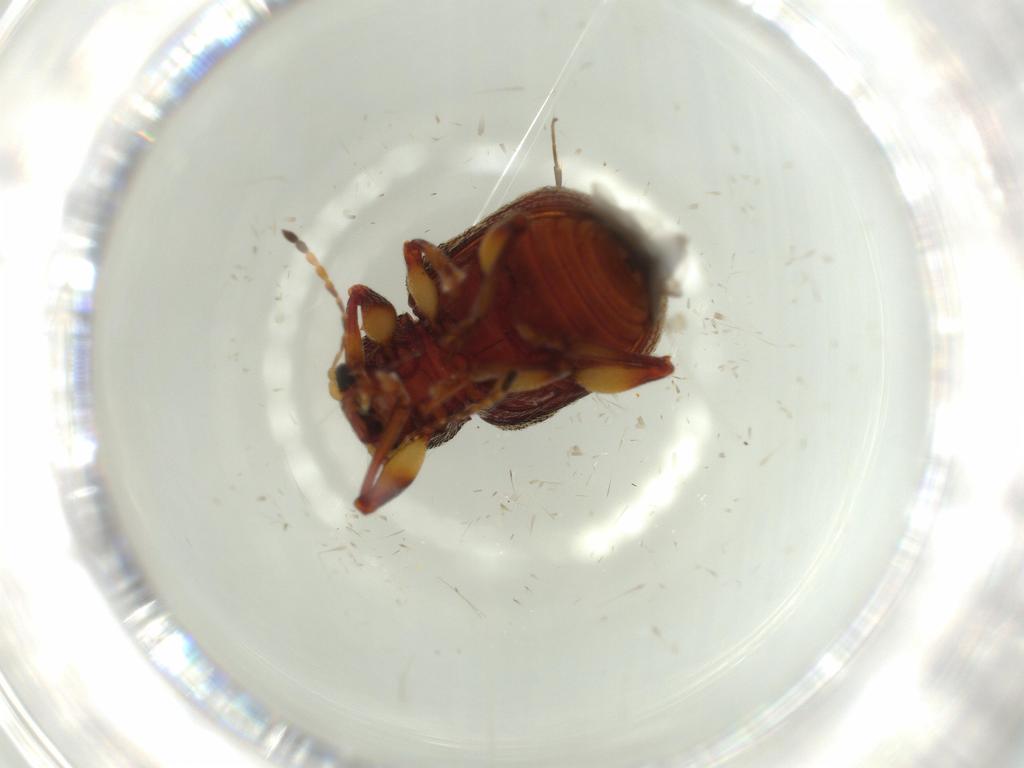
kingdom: Animalia
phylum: Arthropoda
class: Insecta
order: Coleoptera
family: Chrysomelidae
